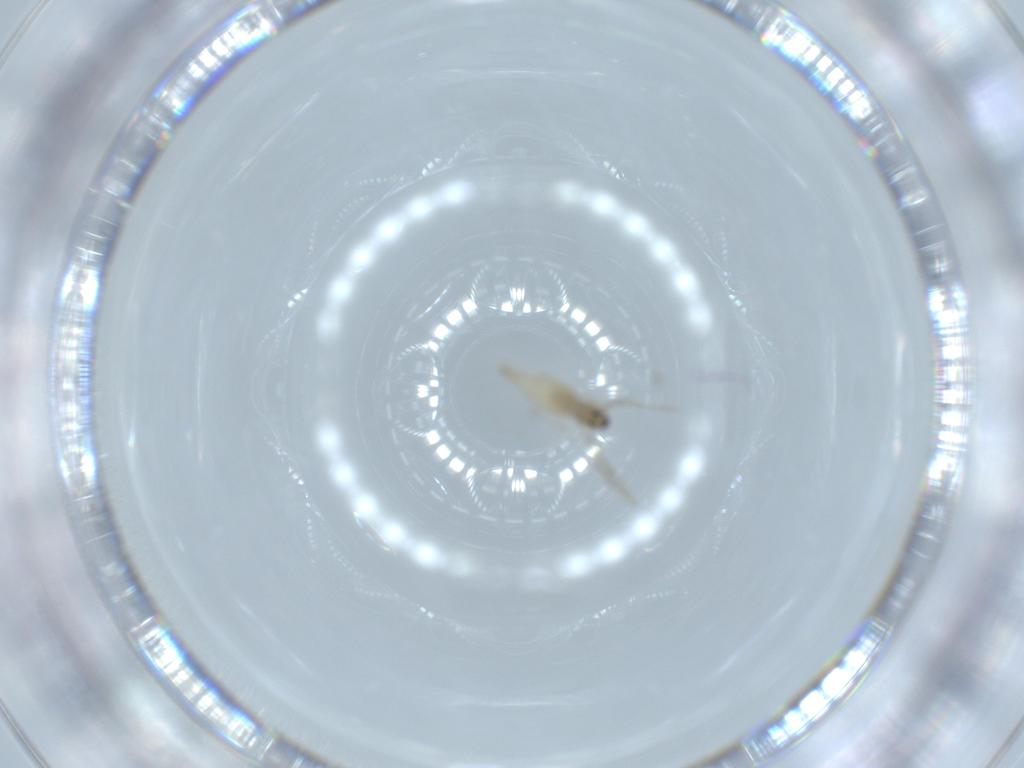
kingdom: Animalia
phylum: Arthropoda
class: Insecta
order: Diptera
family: Cecidomyiidae
